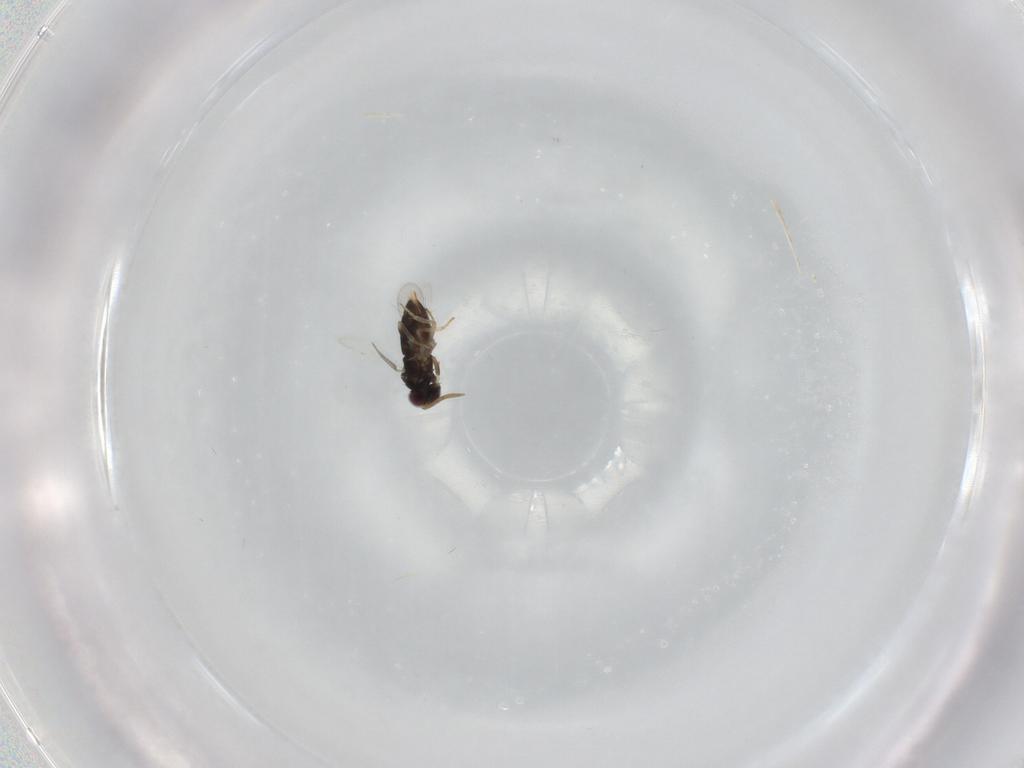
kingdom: Animalia
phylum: Arthropoda
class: Insecta
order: Hymenoptera
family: Aphelinidae
